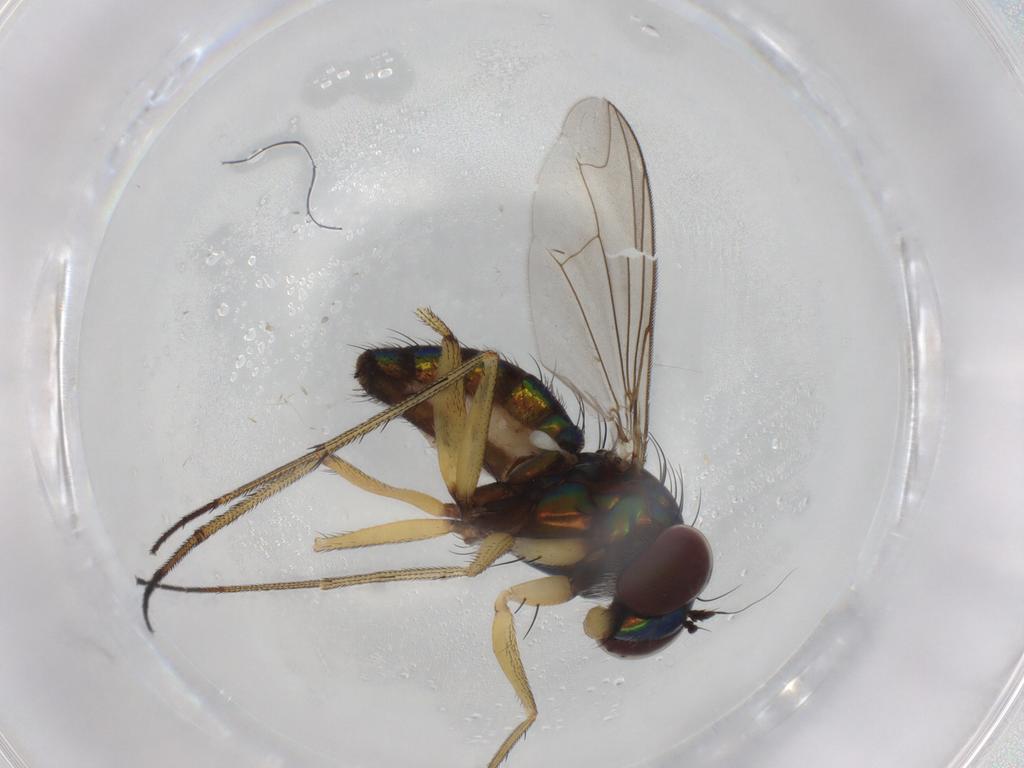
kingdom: Animalia
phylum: Arthropoda
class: Insecta
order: Diptera
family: Dolichopodidae
